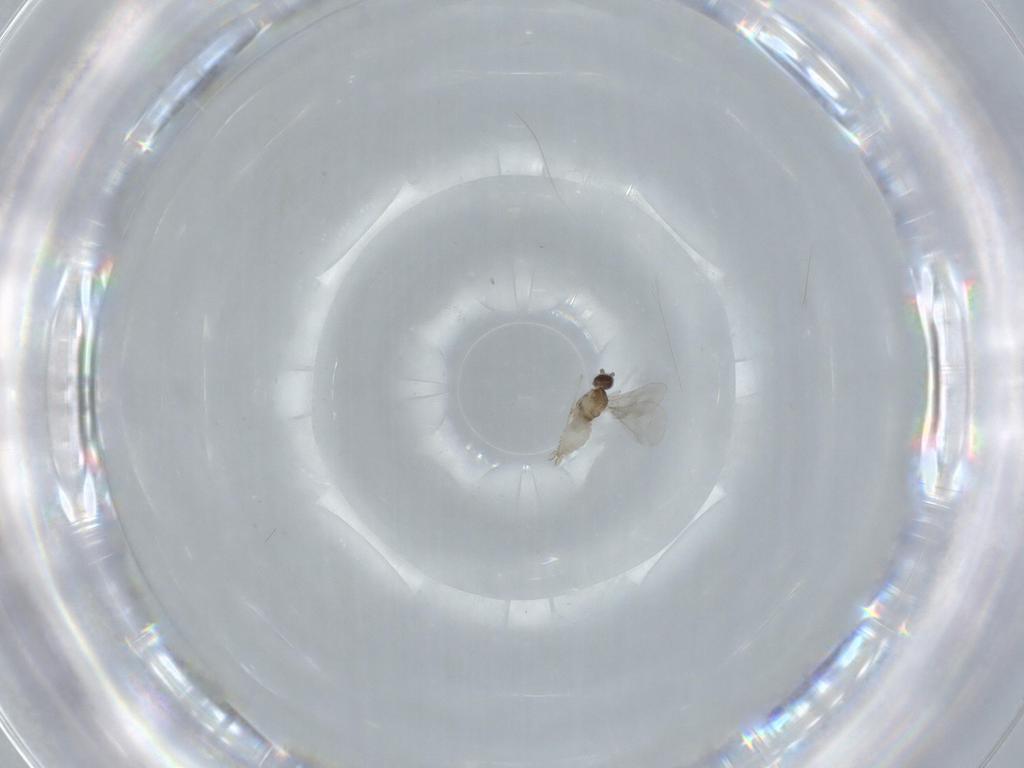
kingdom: Animalia
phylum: Arthropoda
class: Insecta
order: Diptera
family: Cecidomyiidae
